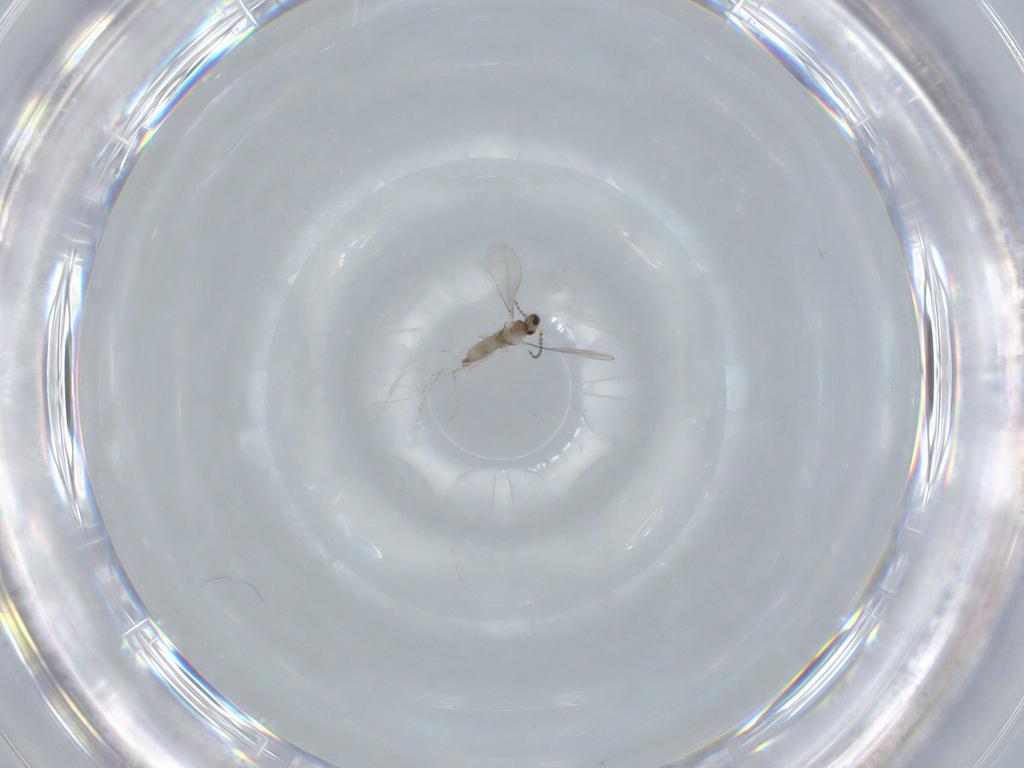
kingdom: Animalia
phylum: Arthropoda
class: Insecta
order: Diptera
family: Cecidomyiidae
